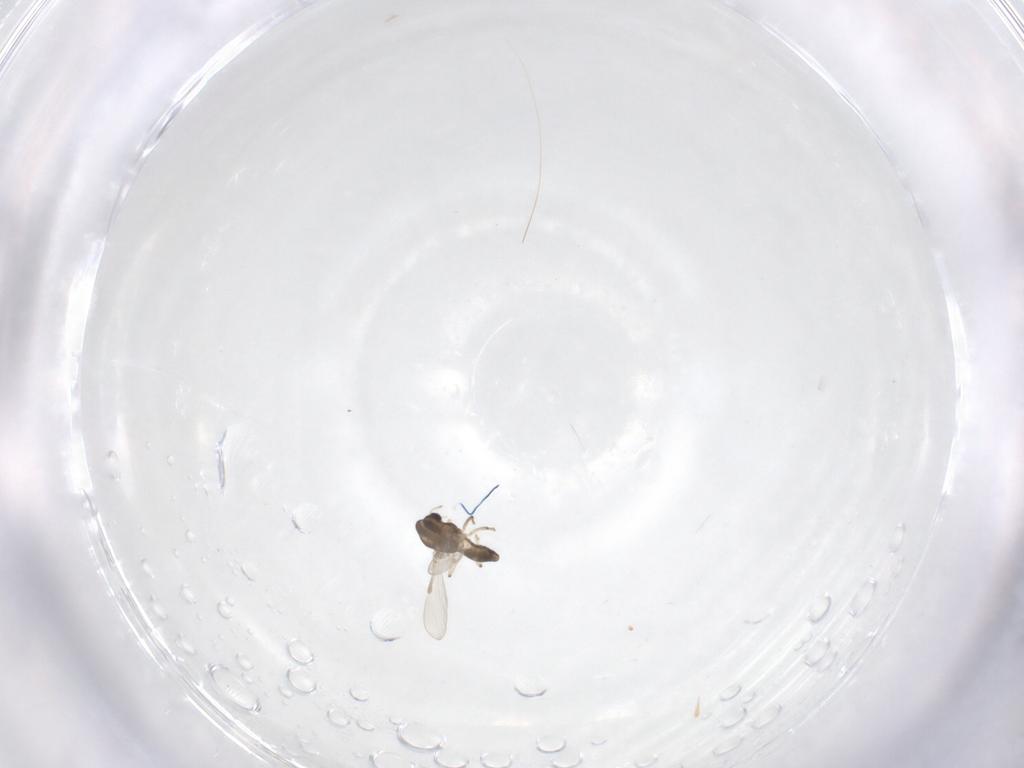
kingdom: Animalia
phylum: Arthropoda
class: Insecta
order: Diptera
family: Chironomidae
